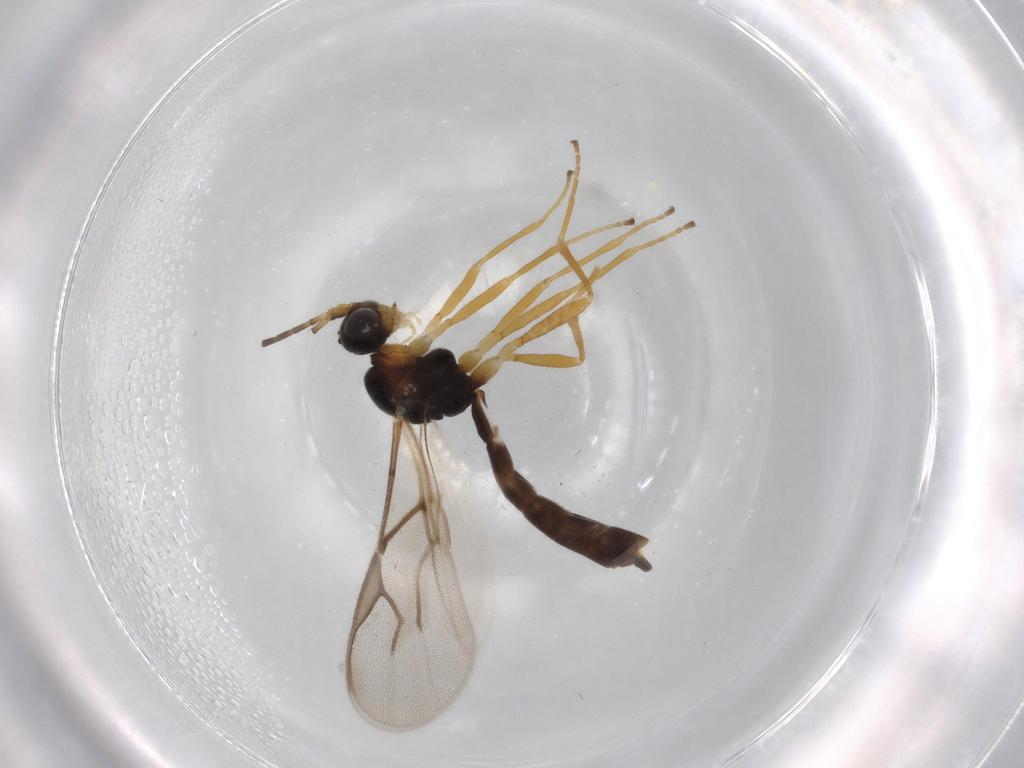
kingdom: Animalia
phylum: Arthropoda
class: Insecta
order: Hymenoptera
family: Braconidae
